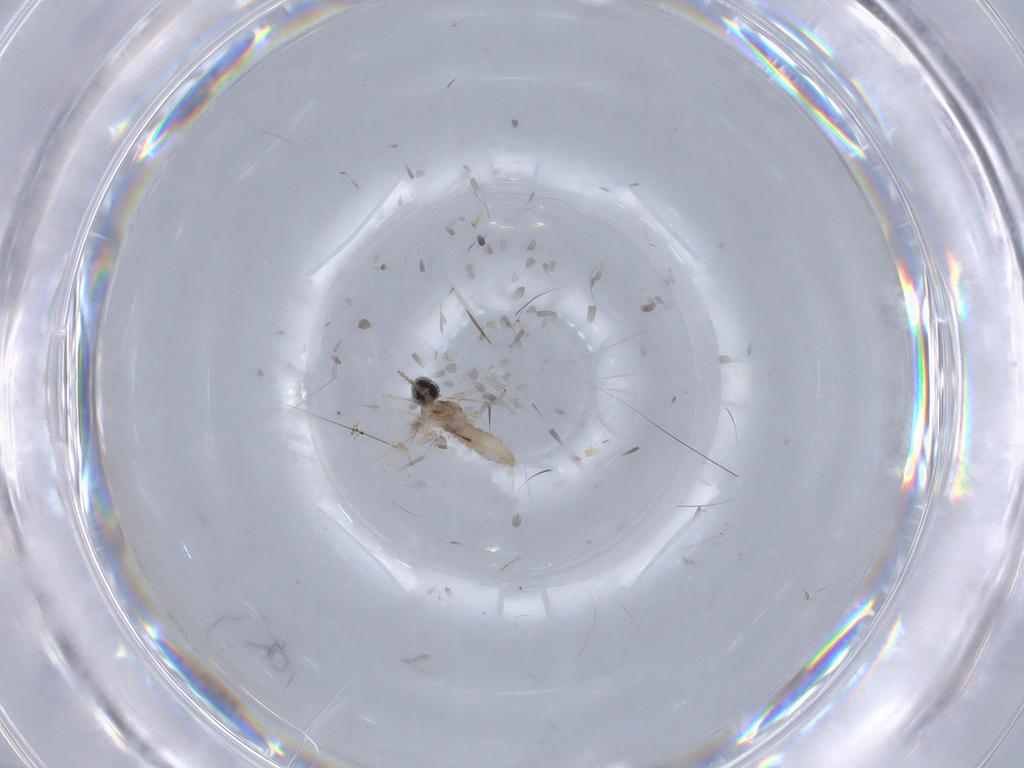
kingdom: Animalia
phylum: Arthropoda
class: Insecta
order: Diptera
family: Cecidomyiidae
